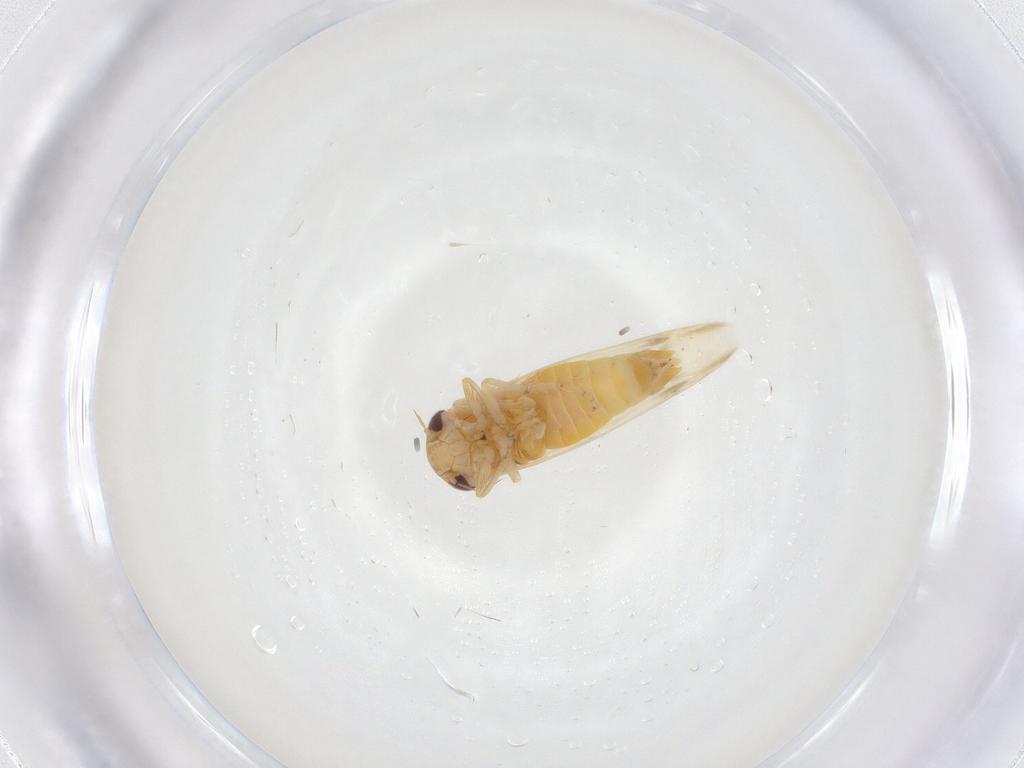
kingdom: Animalia
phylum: Arthropoda
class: Insecta
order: Hemiptera
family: Cicadellidae
